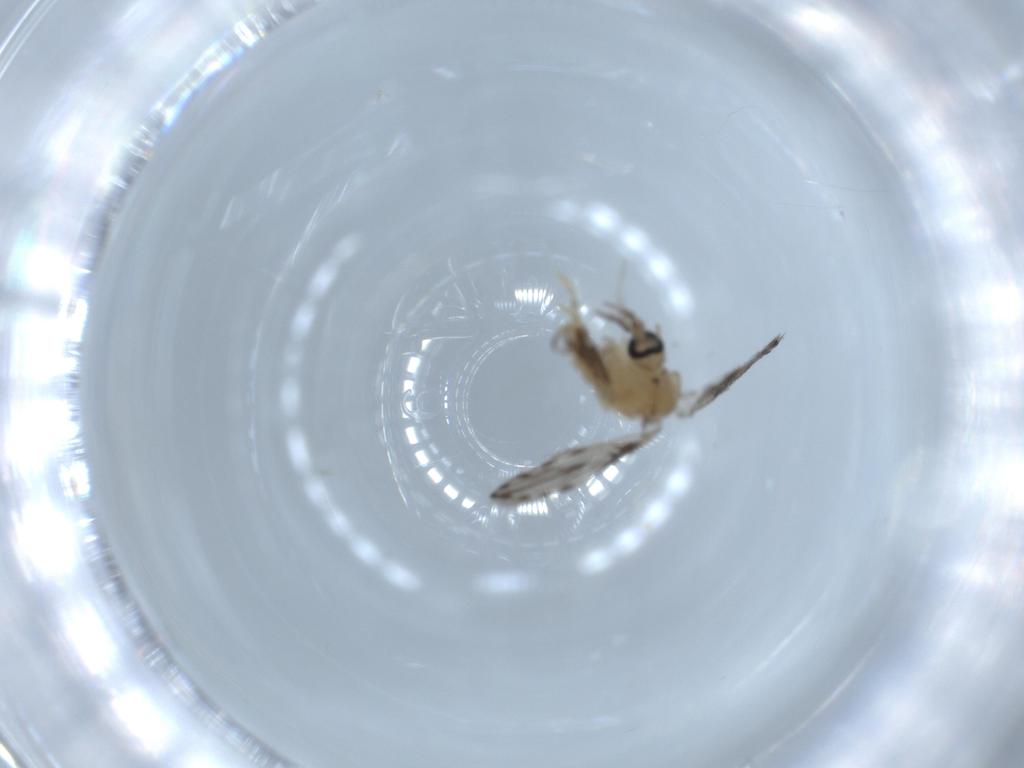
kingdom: Animalia
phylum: Arthropoda
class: Insecta
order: Diptera
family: Psychodidae
